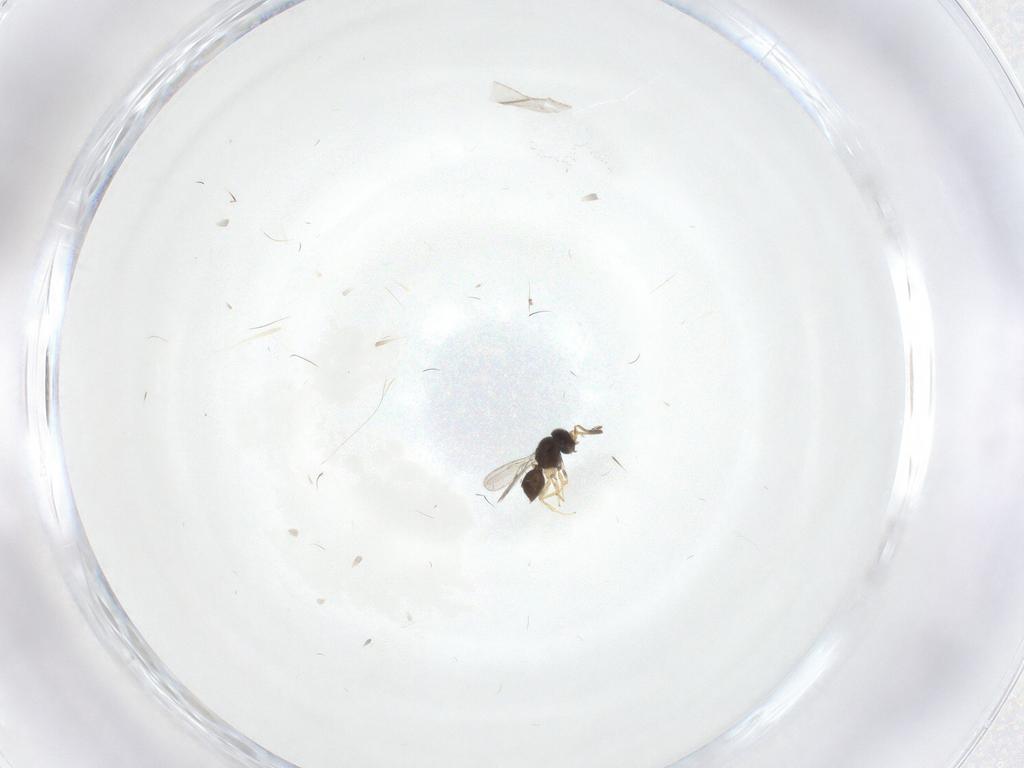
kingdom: Animalia
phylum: Arthropoda
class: Insecta
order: Hymenoptera
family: Scelionidae
